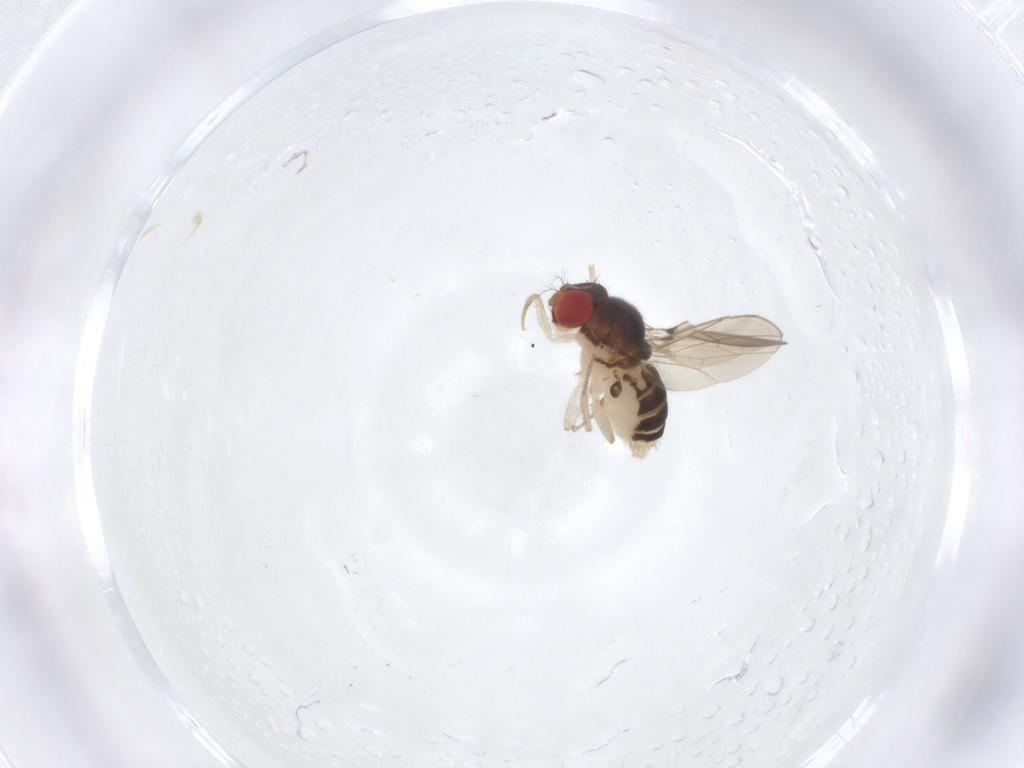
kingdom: Animalia
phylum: Arthropoda
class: Insecta
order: Diptera
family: Drosophilidae
